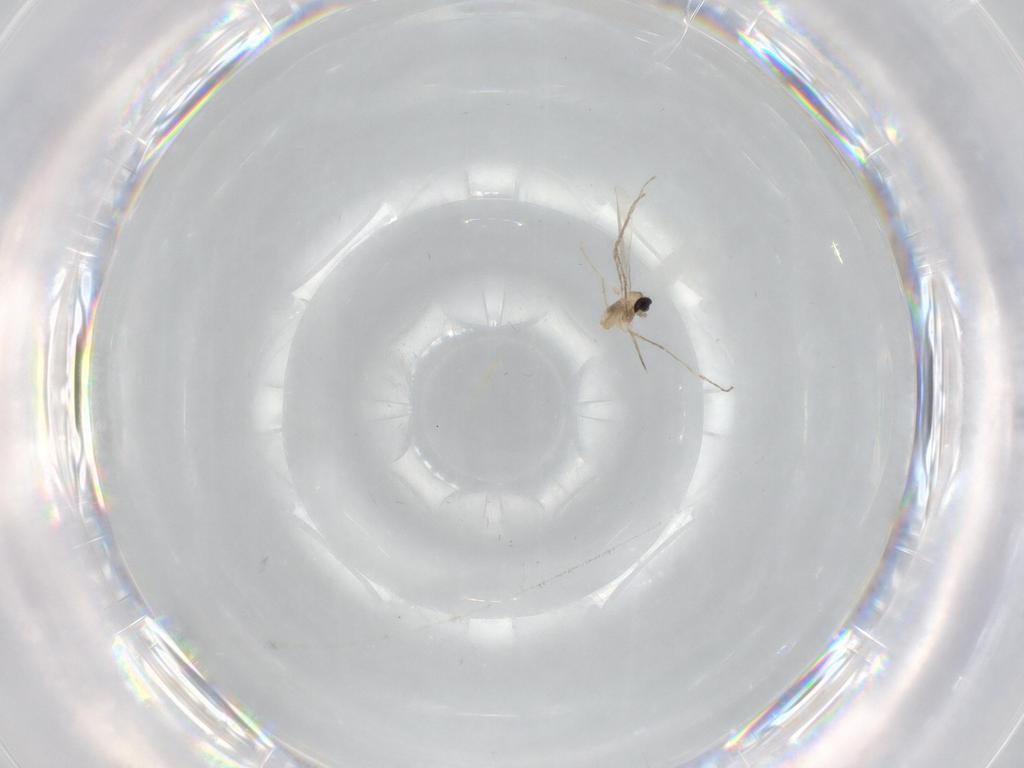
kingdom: Animalia
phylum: Arthropoda
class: Insecta
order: Diptera
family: Cecidomyiidae
